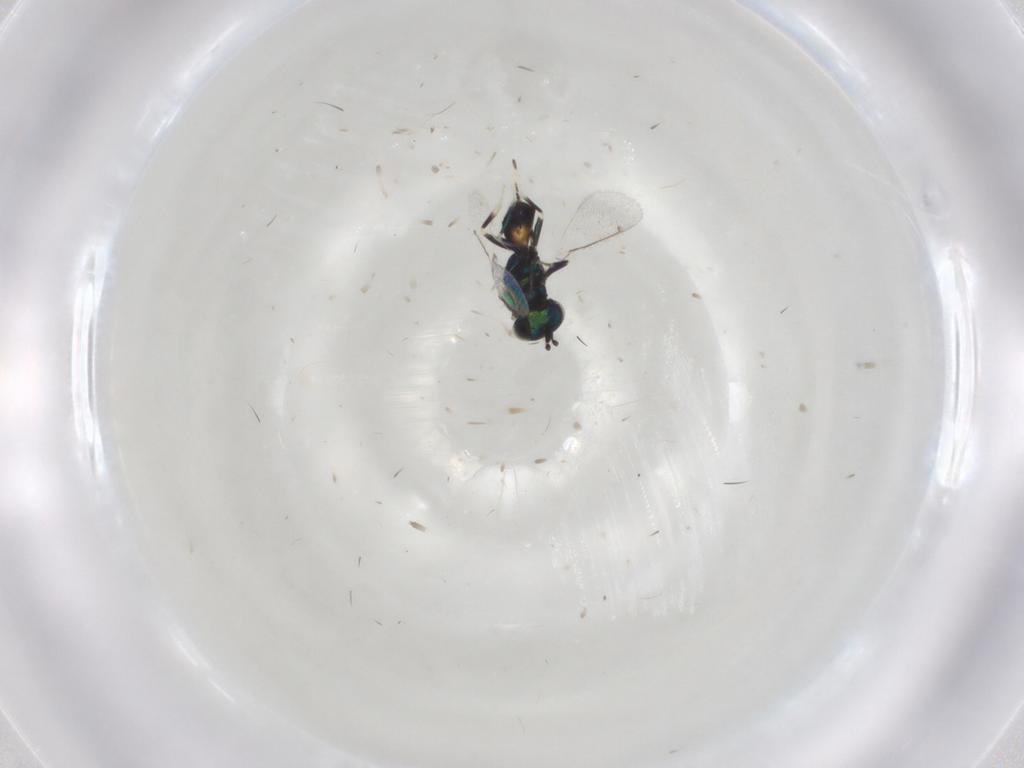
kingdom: Animalia
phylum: Arthropoda
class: Insecta
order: Hymenoptera
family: Eulophidae
